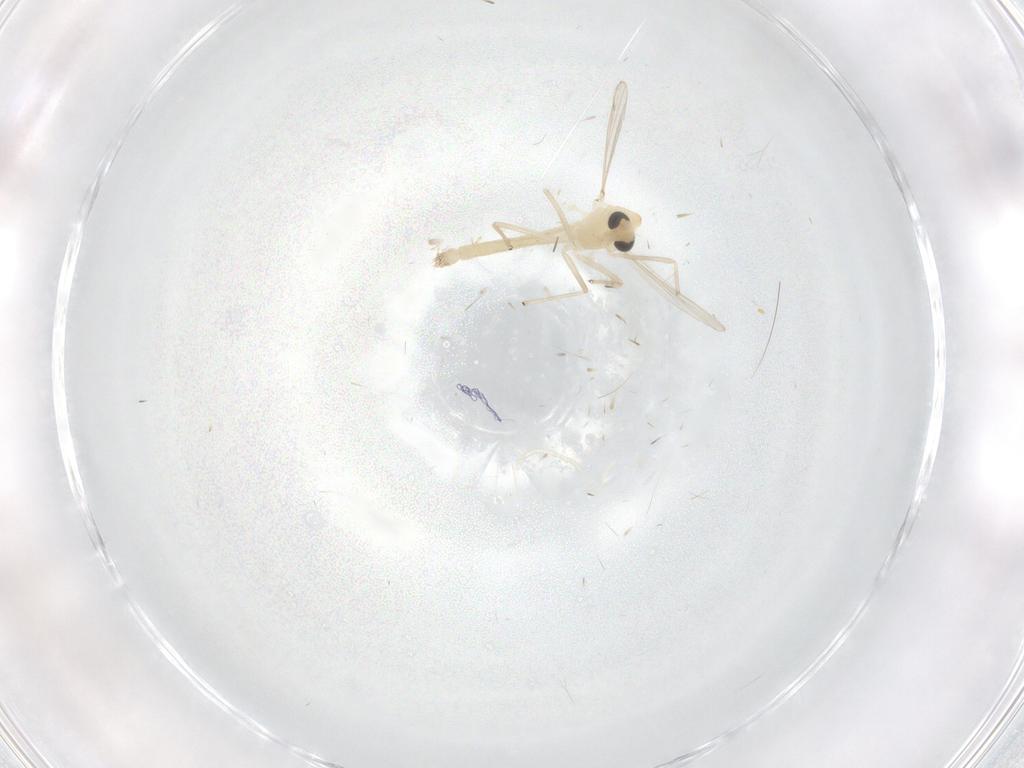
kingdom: Animalia
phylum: Arthropoda
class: Insecta
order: Diptera
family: Chironomidae
